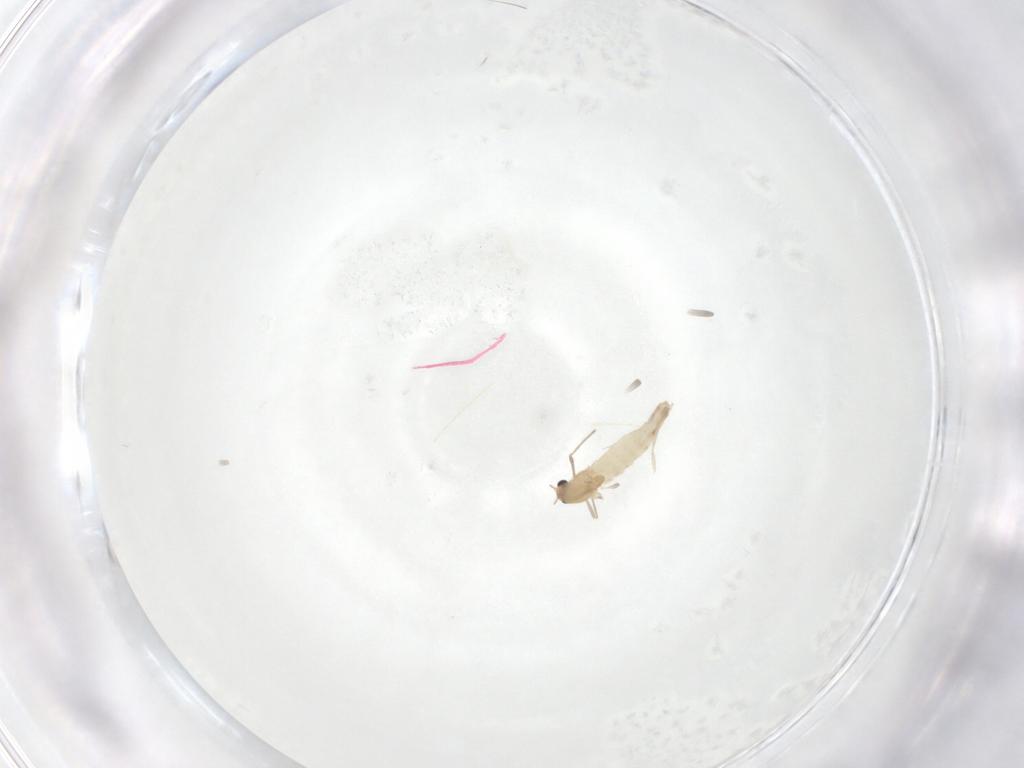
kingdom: Animalia
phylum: Arthropoda
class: Insecta
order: Diptera
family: Chironomidae
